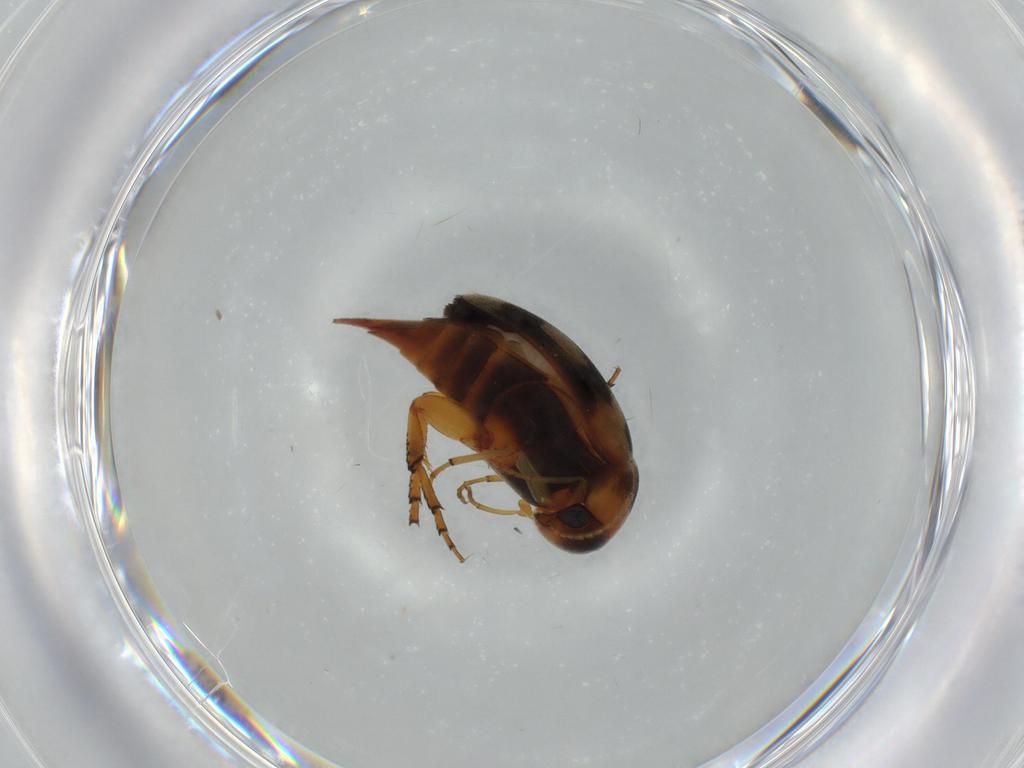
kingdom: Animalia
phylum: Arthropoda
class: Insecta
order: Coleoptera
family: Mordellidae
